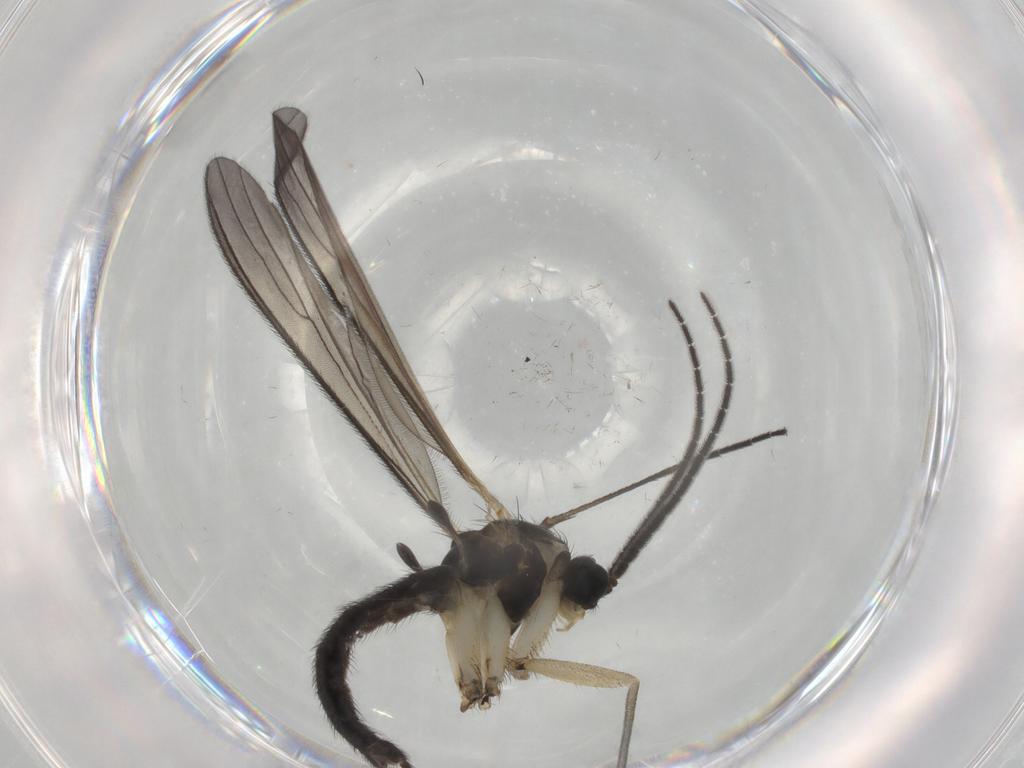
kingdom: Animalia
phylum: Arthropoda
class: Insecta
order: Diptera
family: Sciaridae
